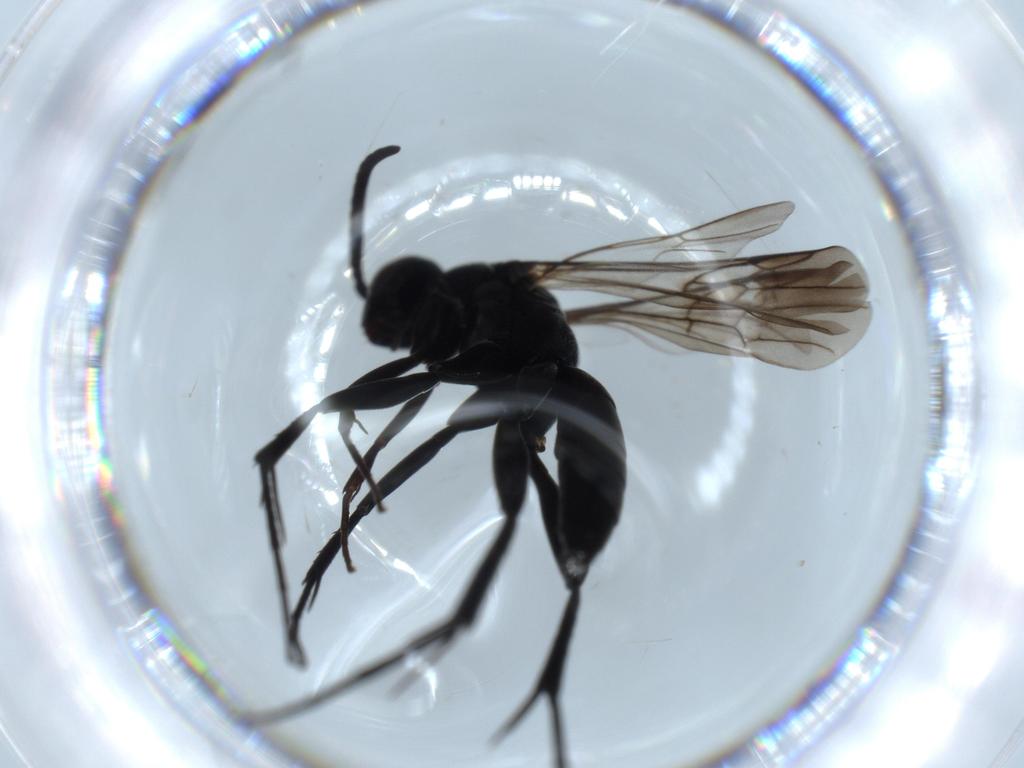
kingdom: Animalia
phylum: Arthropoda
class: Insecta
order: Hymenoptera
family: Pompilidae
